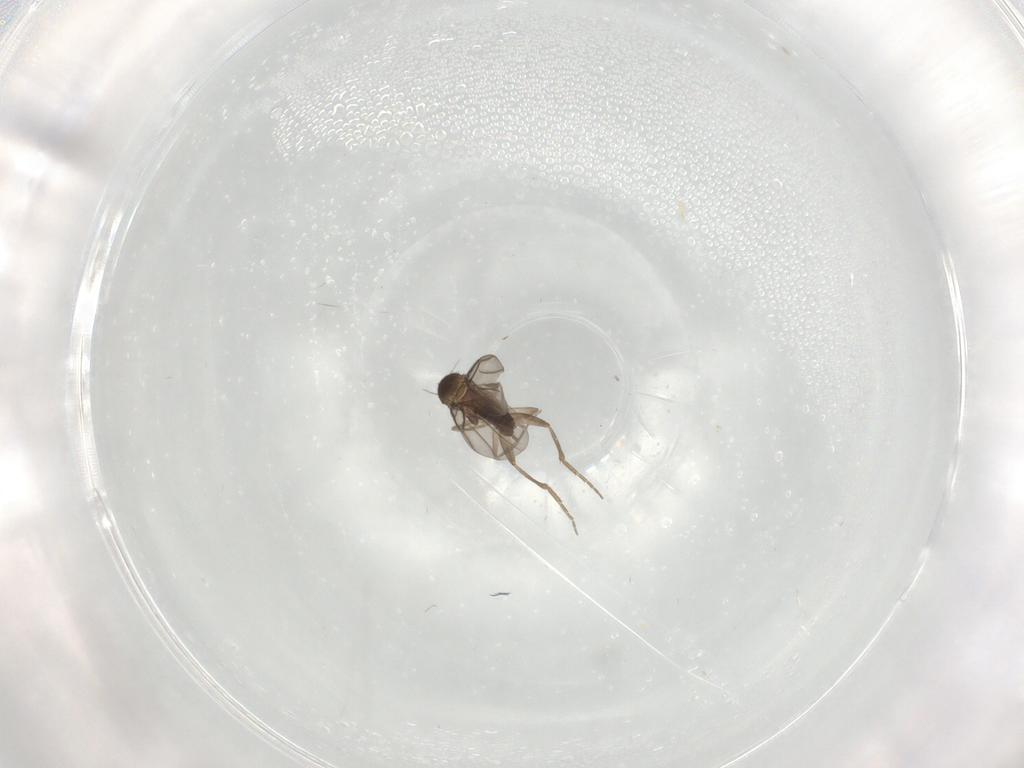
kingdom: Animalia
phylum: Arthropoda
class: Insecta
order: Diptera
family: Phoridae
